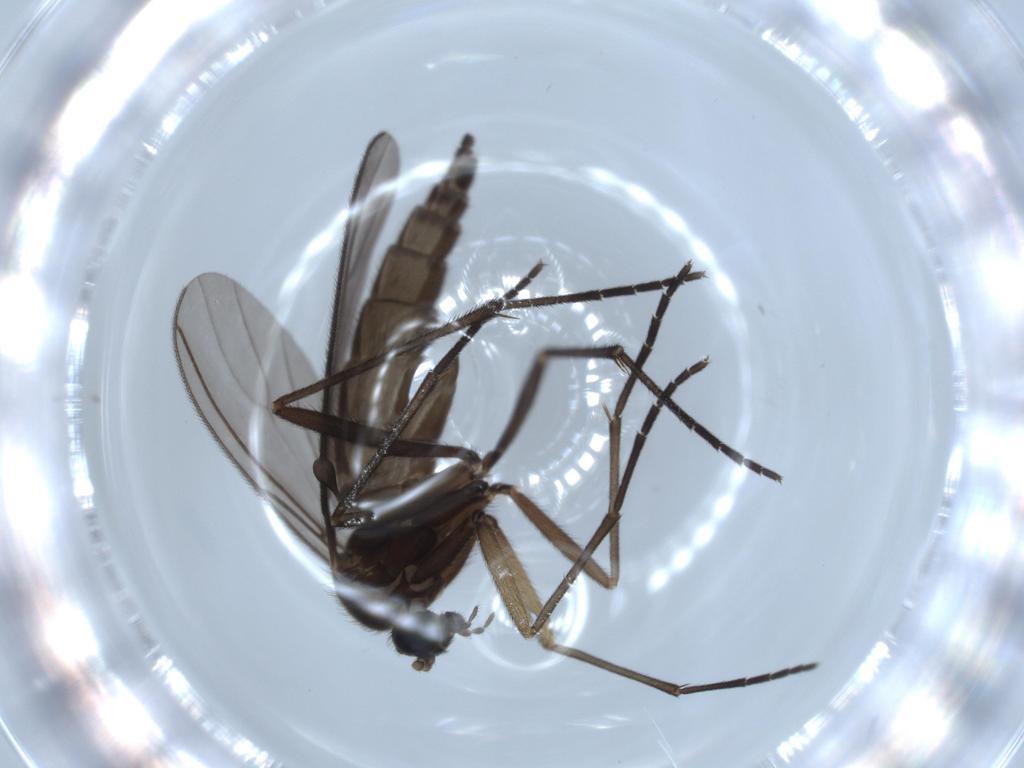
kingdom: Animalia
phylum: Arthropoda
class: Insecta
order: Diptera
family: Sciaridae
